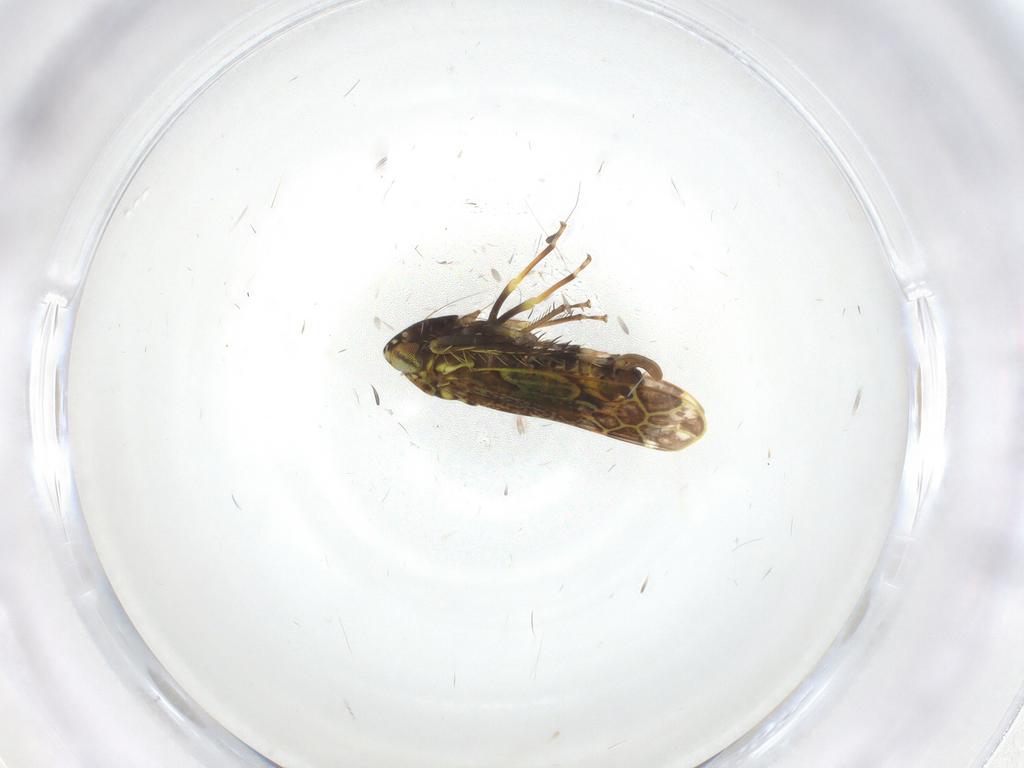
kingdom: Animalia
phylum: Arthropoda
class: Insecta
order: Hemiptera
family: Cicadellidae
